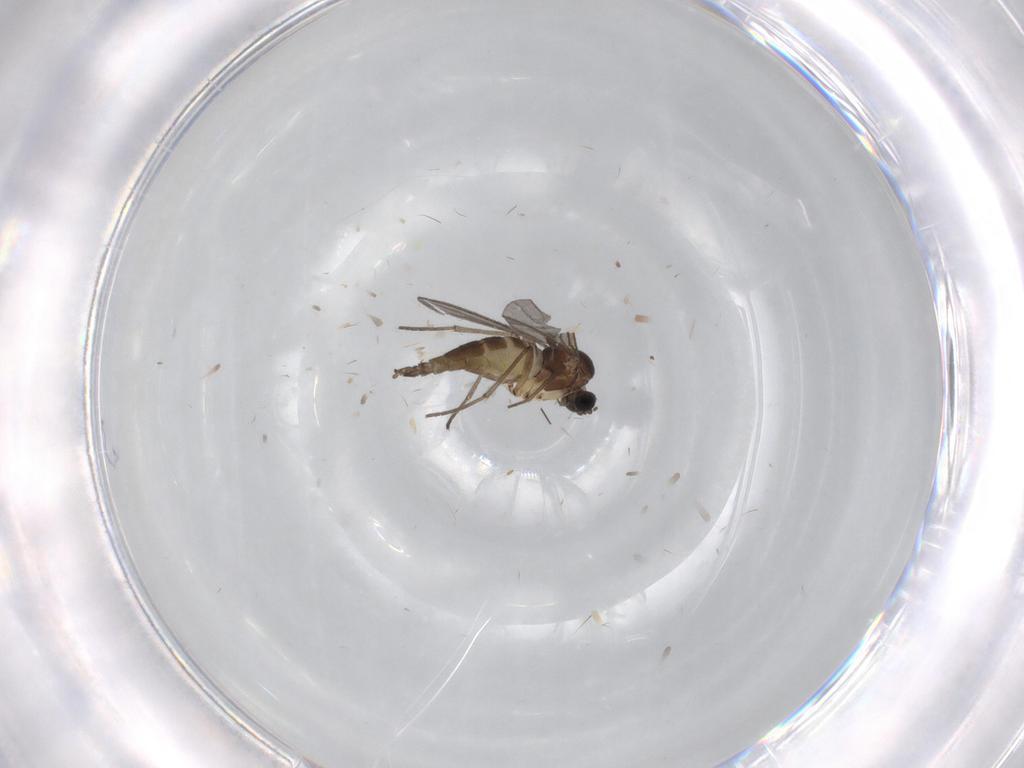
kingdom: Animalia
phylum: Arthropoda
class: Insecta
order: Diptera
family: Sciaridae
